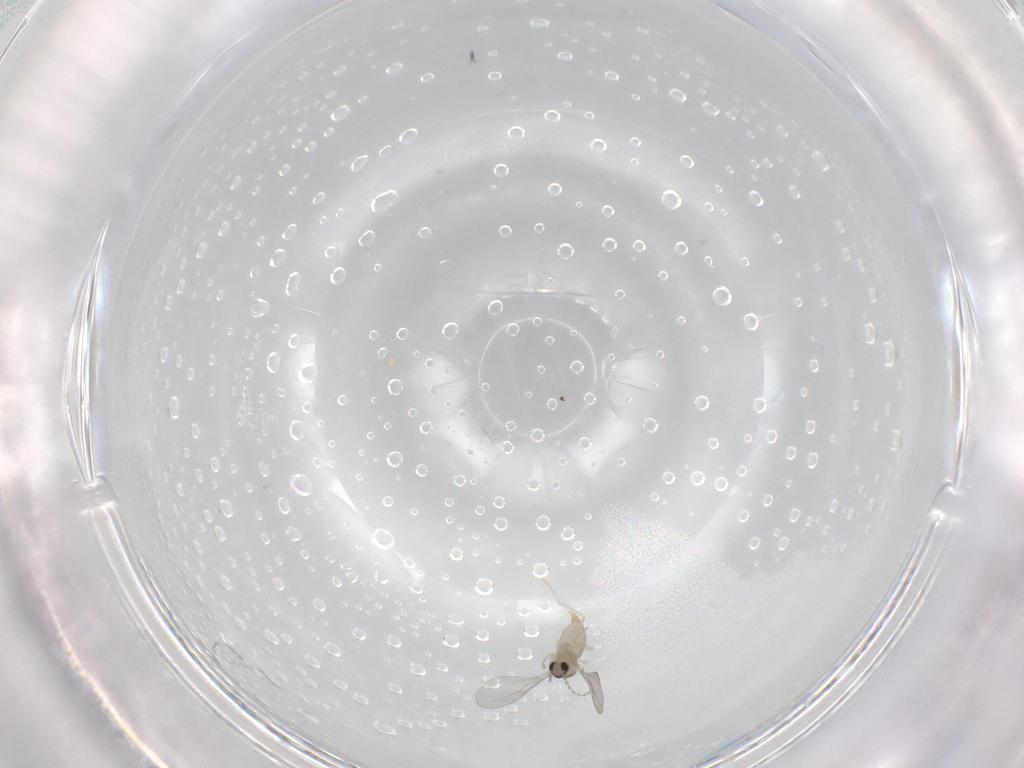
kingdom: Animalia
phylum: Arthropoda
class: Insecta
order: Diptera
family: Cecidomyiidae
